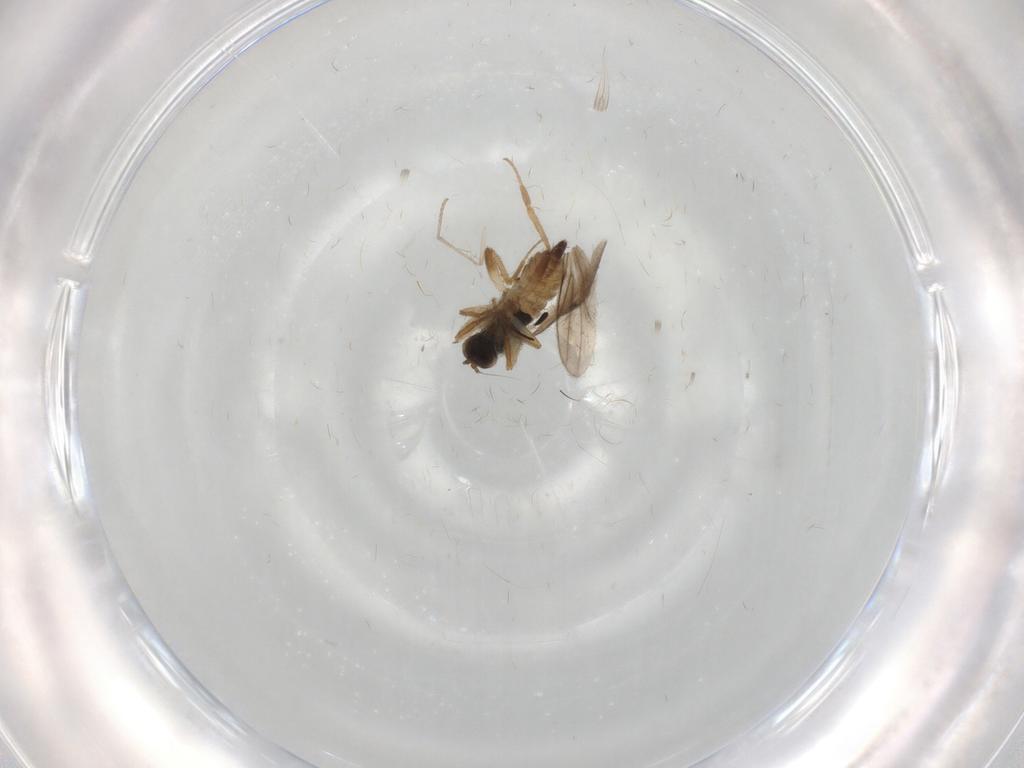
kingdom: Animalia
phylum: Arthropoda
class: Insecta
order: Diptera
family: Hybotidae
